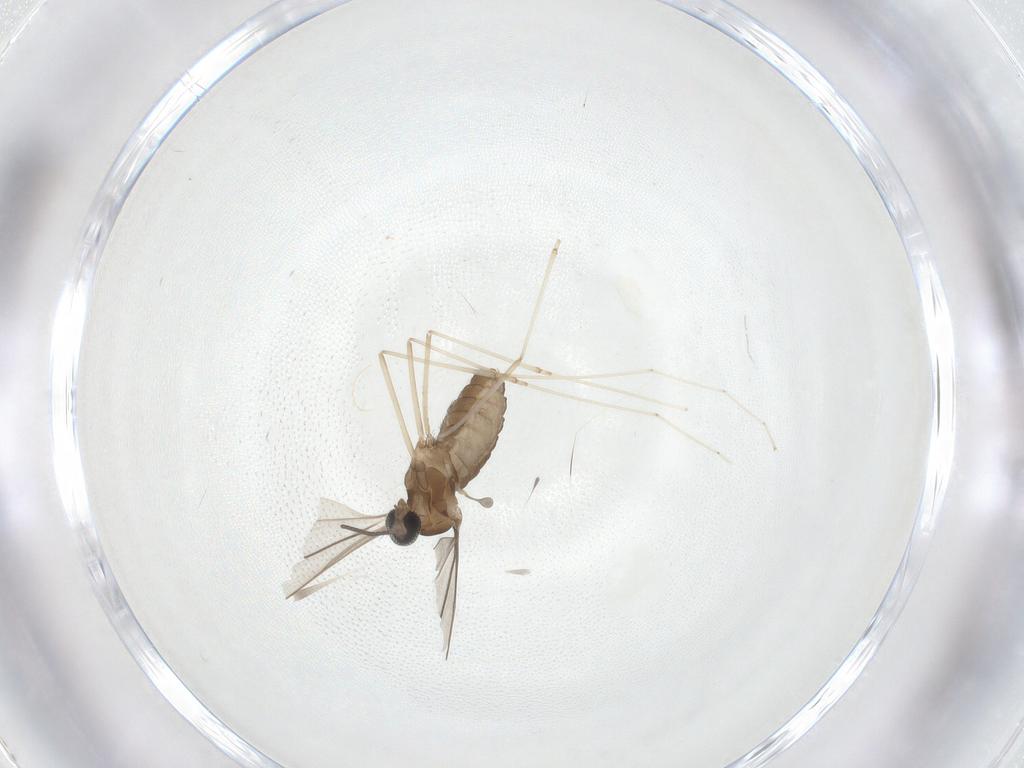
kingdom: Animalia
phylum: Arthropoda
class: Insecta
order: Diptera
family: Cecidomyiidae
